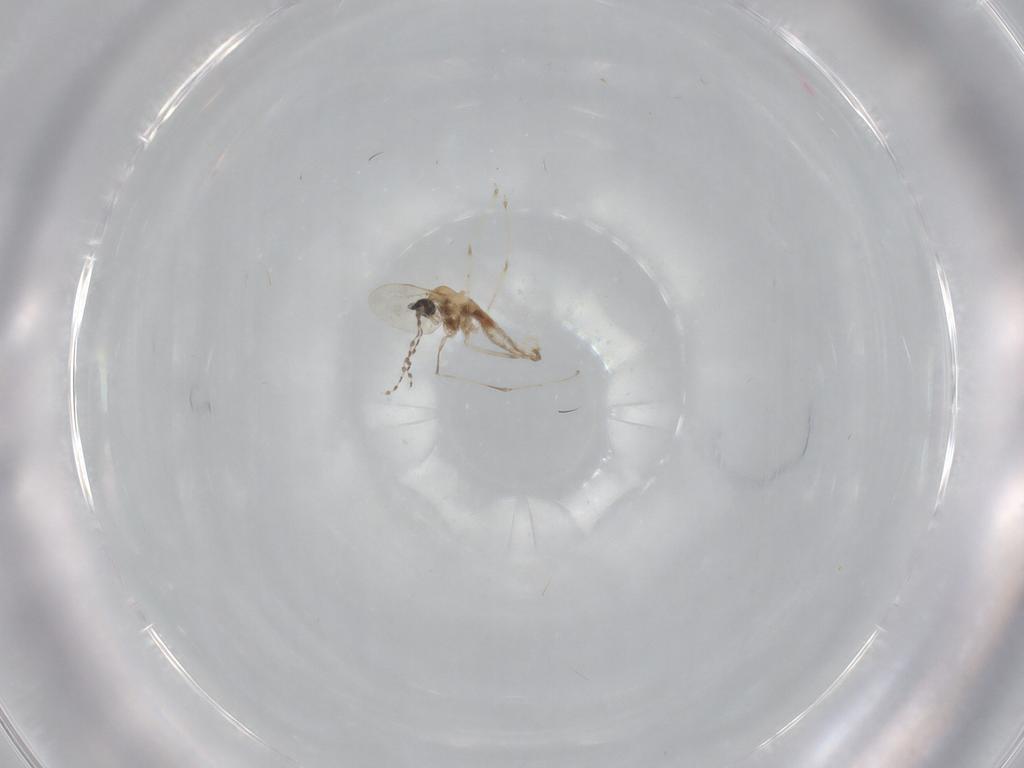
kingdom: Animalia
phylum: Arthropoda
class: Insecta
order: Diptera
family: Cecidomyiidae
